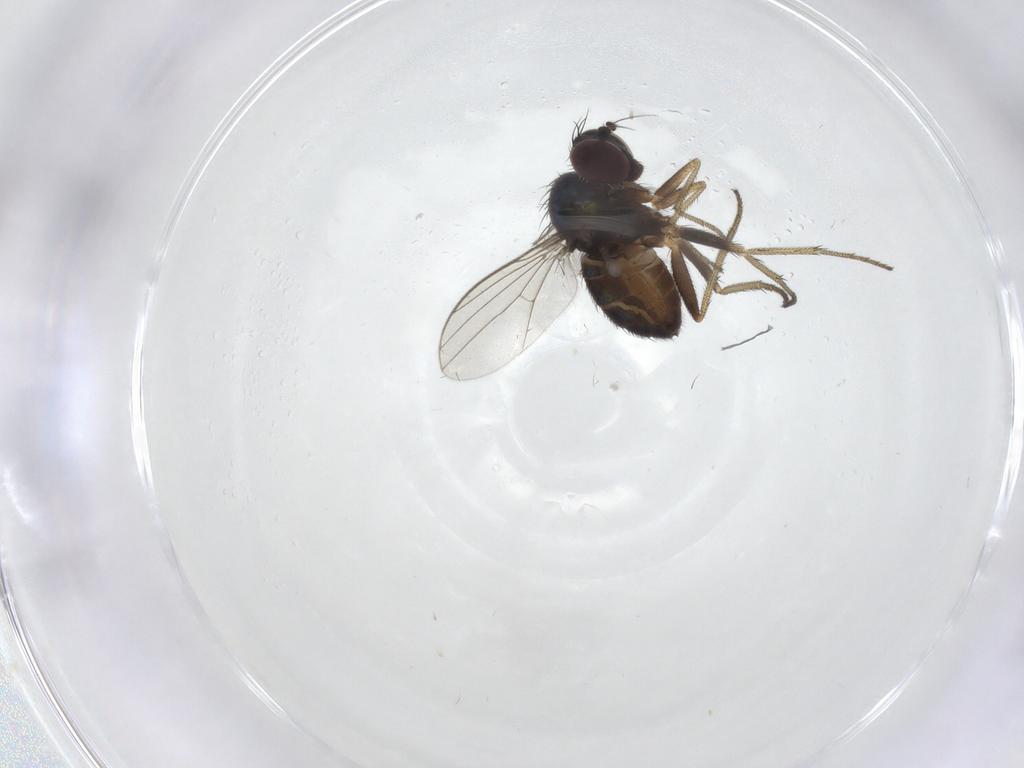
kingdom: Animalia
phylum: Arthropoda
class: Insecta
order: Diptera
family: Dolichopodidae
